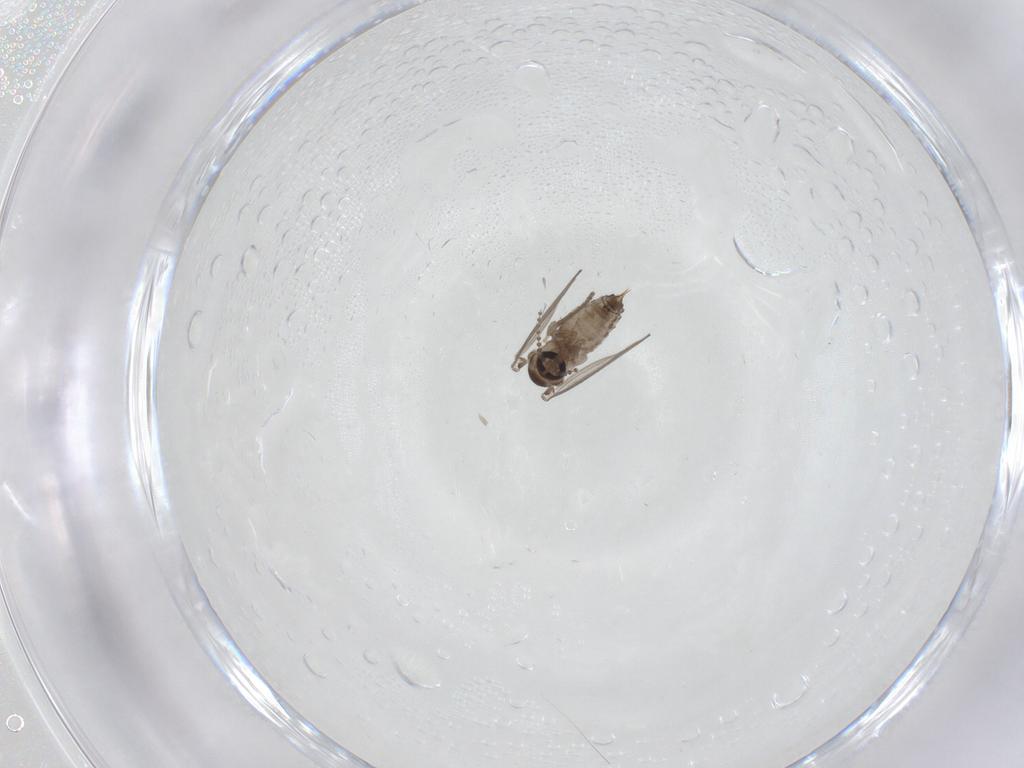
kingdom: Animalia
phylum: Arthropoda
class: Insecta
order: Diptera
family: Psychodidae
